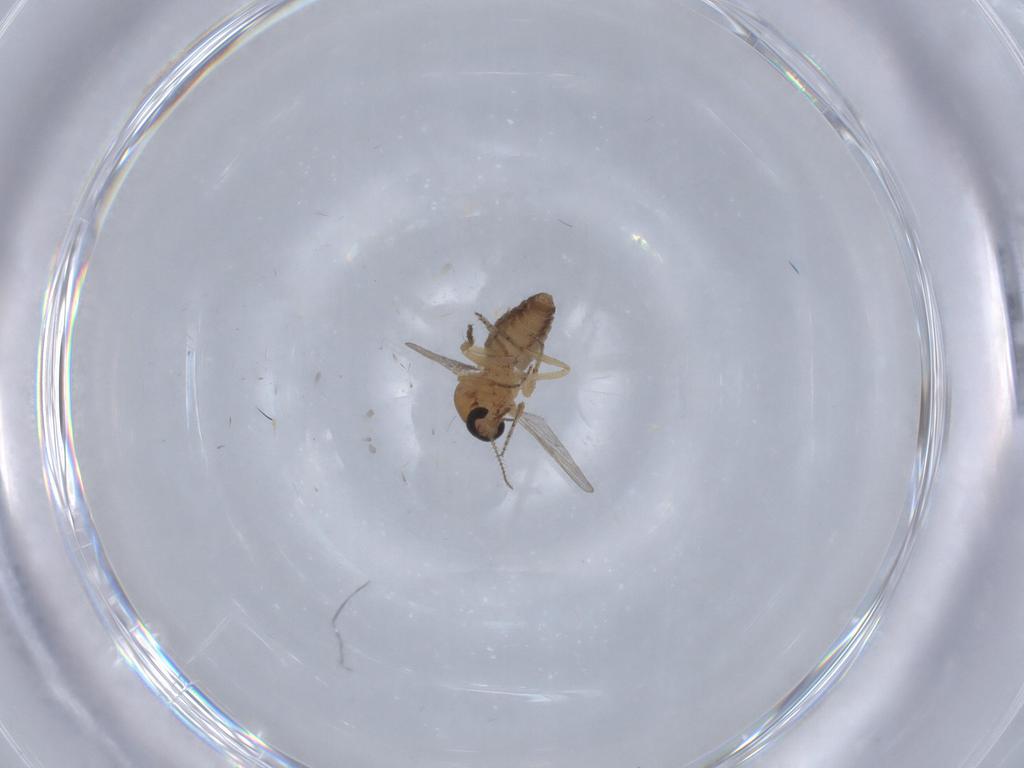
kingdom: Animalia
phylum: Arthropoda
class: Insecta
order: Diptera
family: Ceratopogonidae
